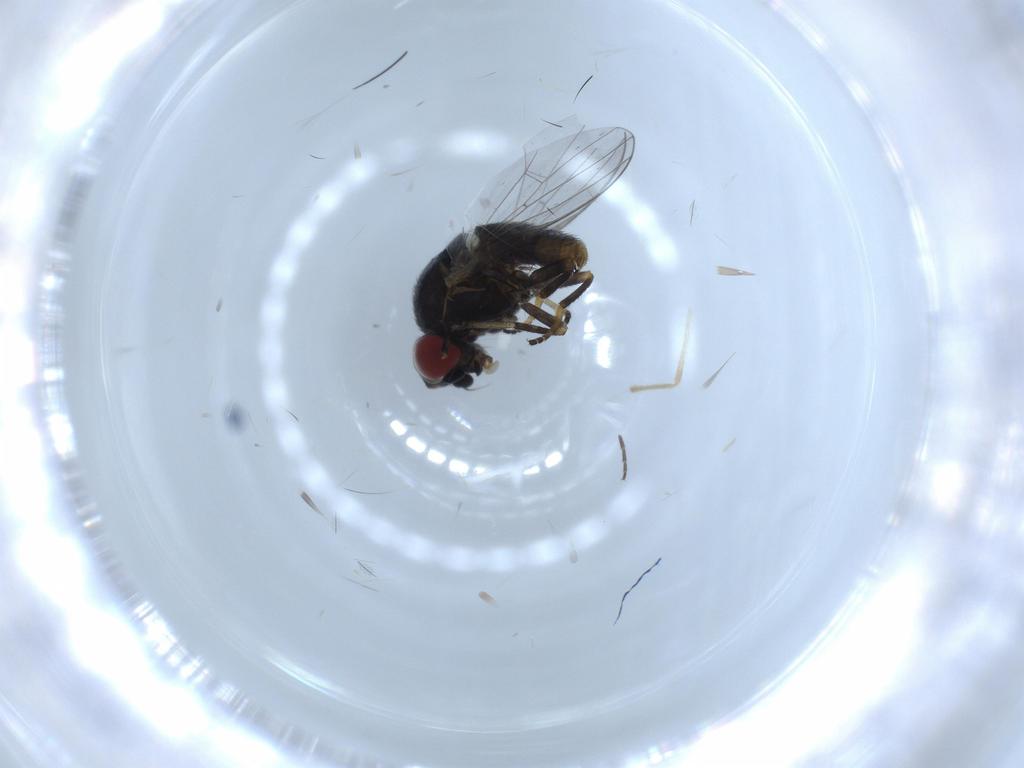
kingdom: Animalia
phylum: Arthropoda
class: Insecta
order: Diptera
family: Chamaemyiidae
